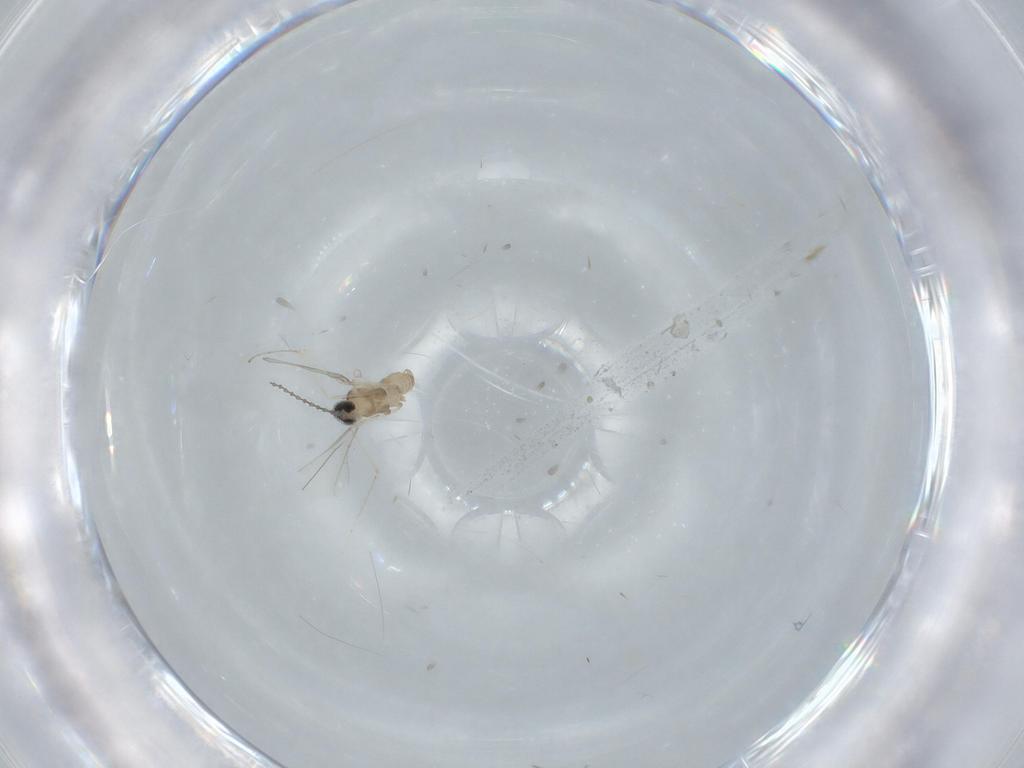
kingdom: Animalia
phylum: Arthropoda
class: Insecta
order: Diptera
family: Cecidomyiidae
